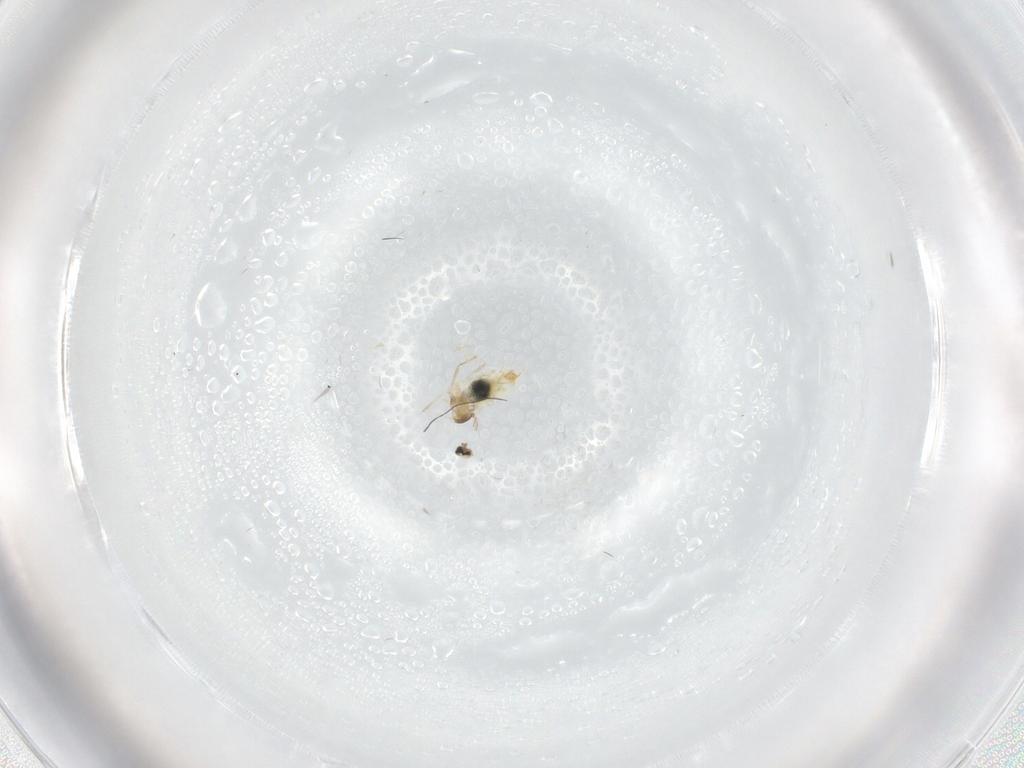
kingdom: Animalia
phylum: Arthropoda
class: Insecta
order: Diptera
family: Cecidomyiidae
